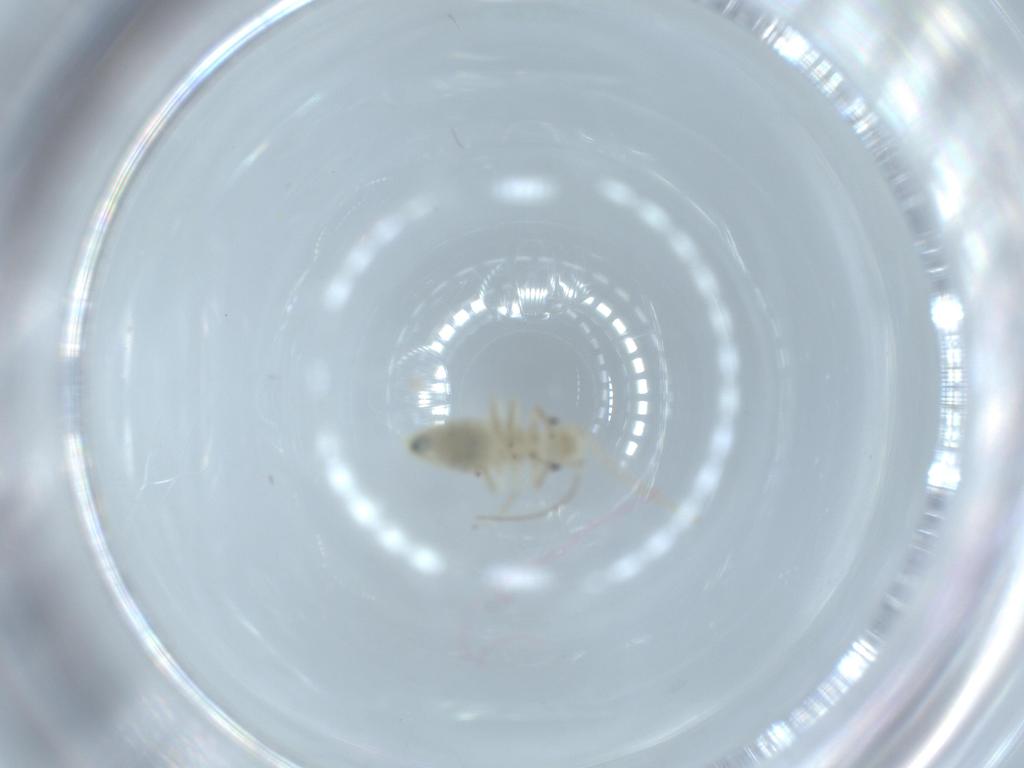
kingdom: Animalia
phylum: Arthropoda
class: Insecta
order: Psocodea
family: Caeciliusidae
